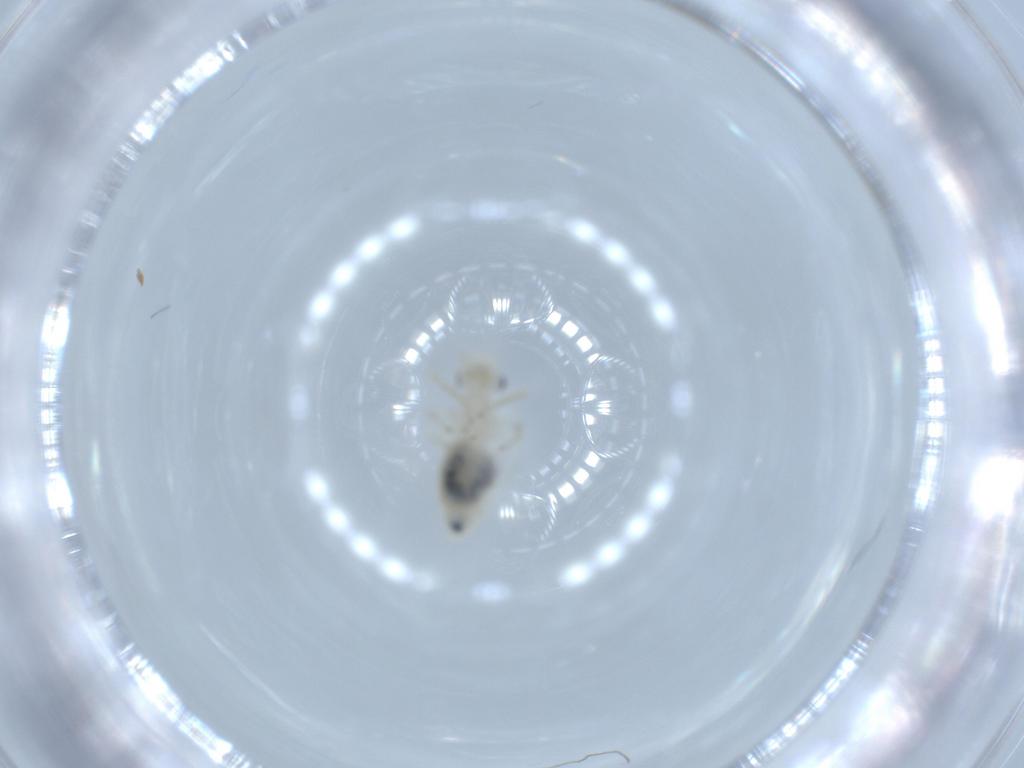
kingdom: Animalia
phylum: Arthropoda
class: Insecta
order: Psocodea
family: Caeciliusidae
